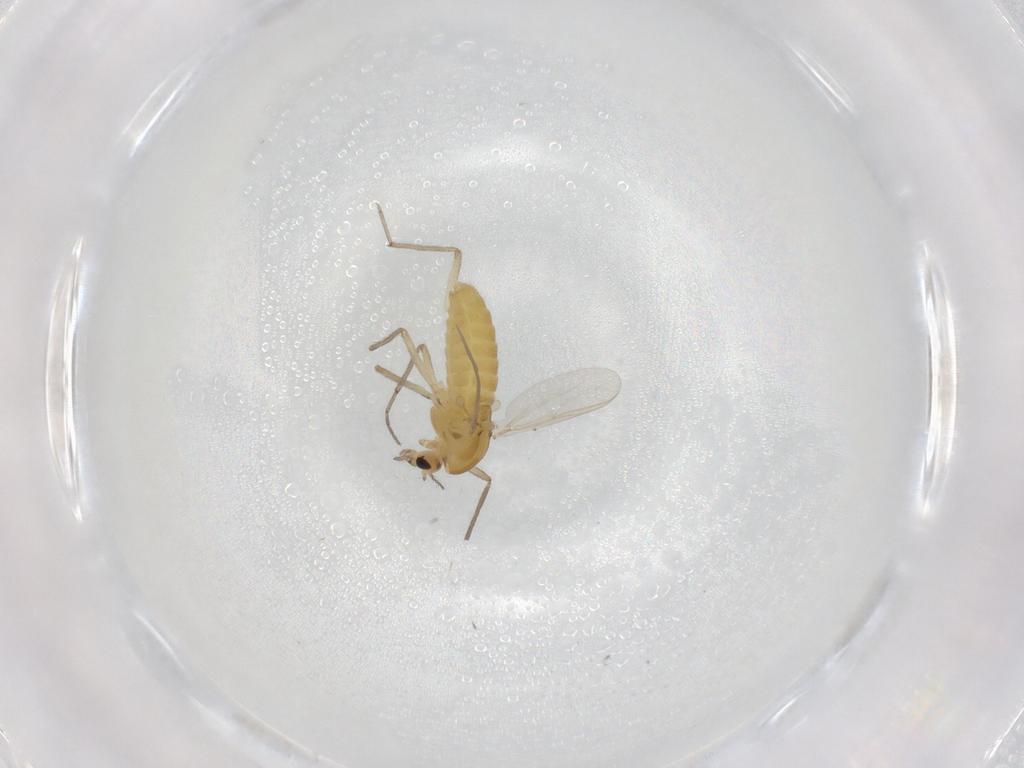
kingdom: Animalia
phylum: Arthropoda
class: Insecta
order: Diptera
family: Chironomidae
